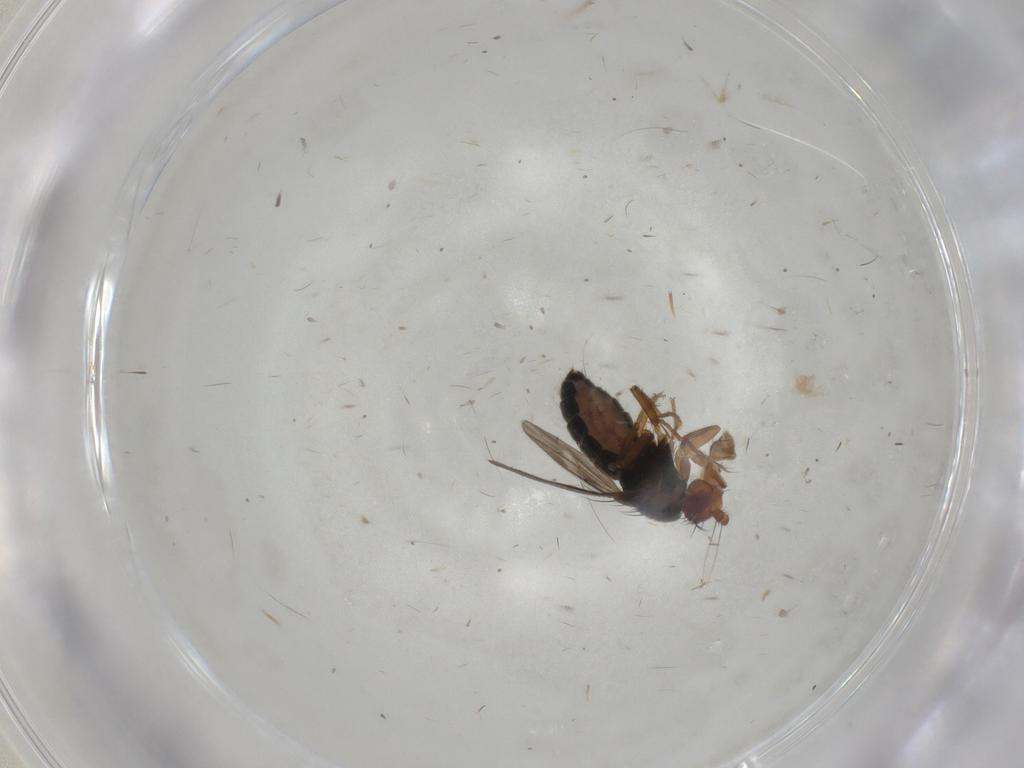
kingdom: Animalia
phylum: Arthropoda
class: Insecta
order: Diptera
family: Sphaeroceridae
